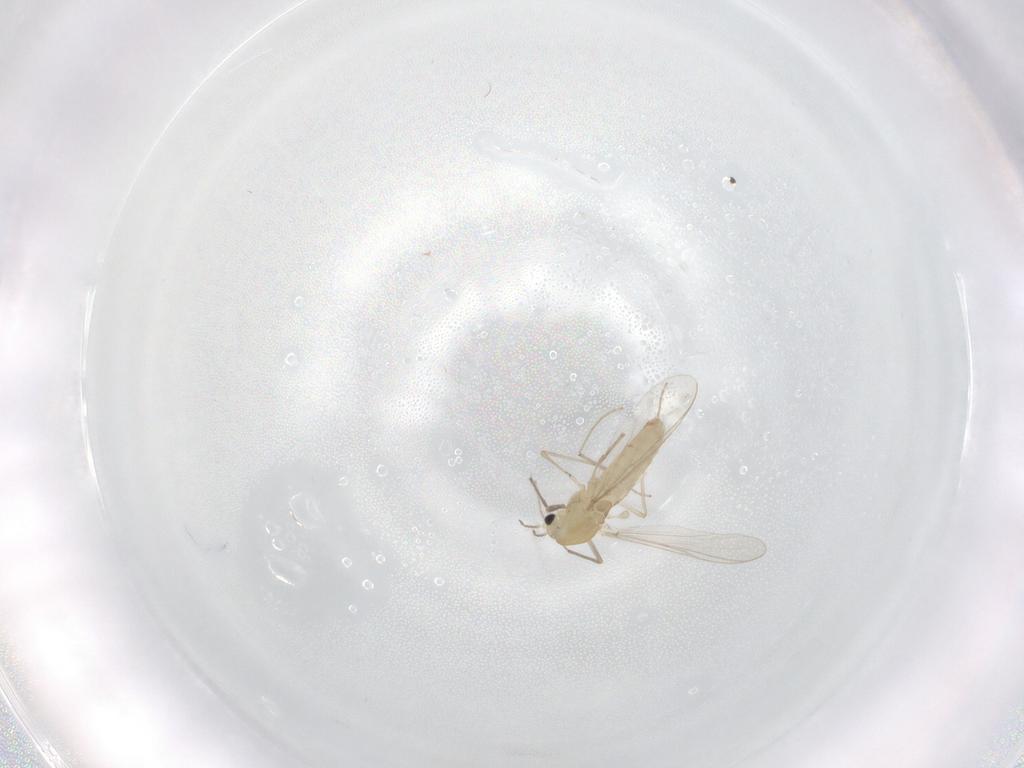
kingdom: Animalia
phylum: Arthropoda
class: Insecta
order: Diptera
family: Chironomidae
